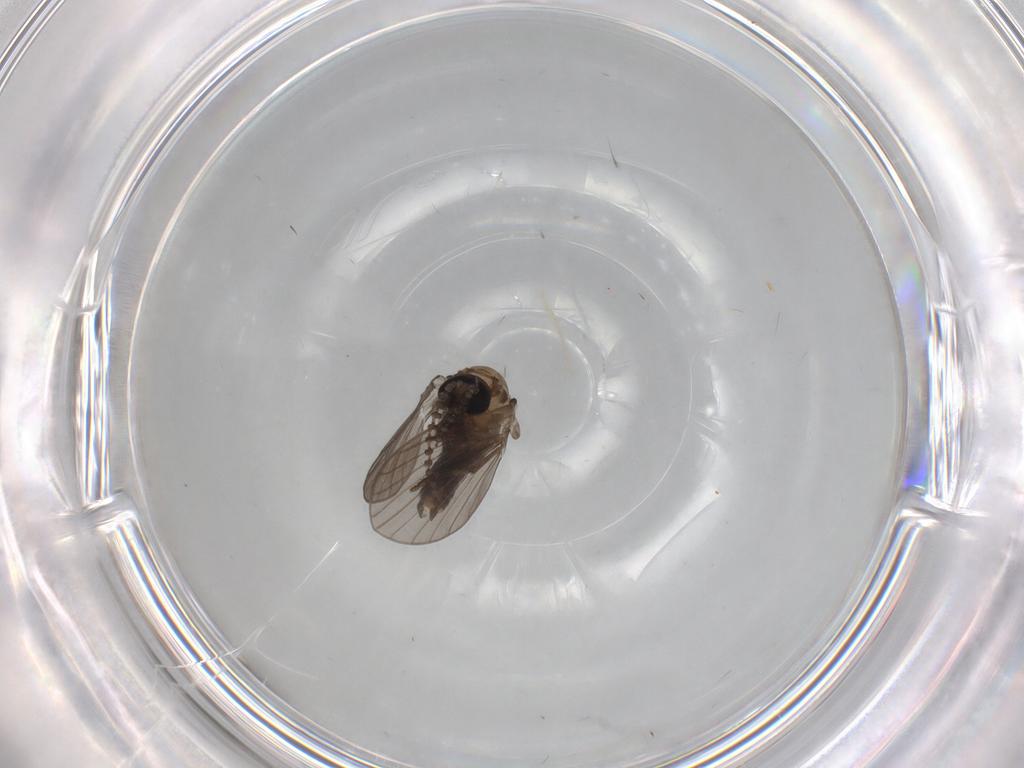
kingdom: Animalia
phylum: Arthropoda
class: Insecta
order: Diptera
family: Psychodidae
